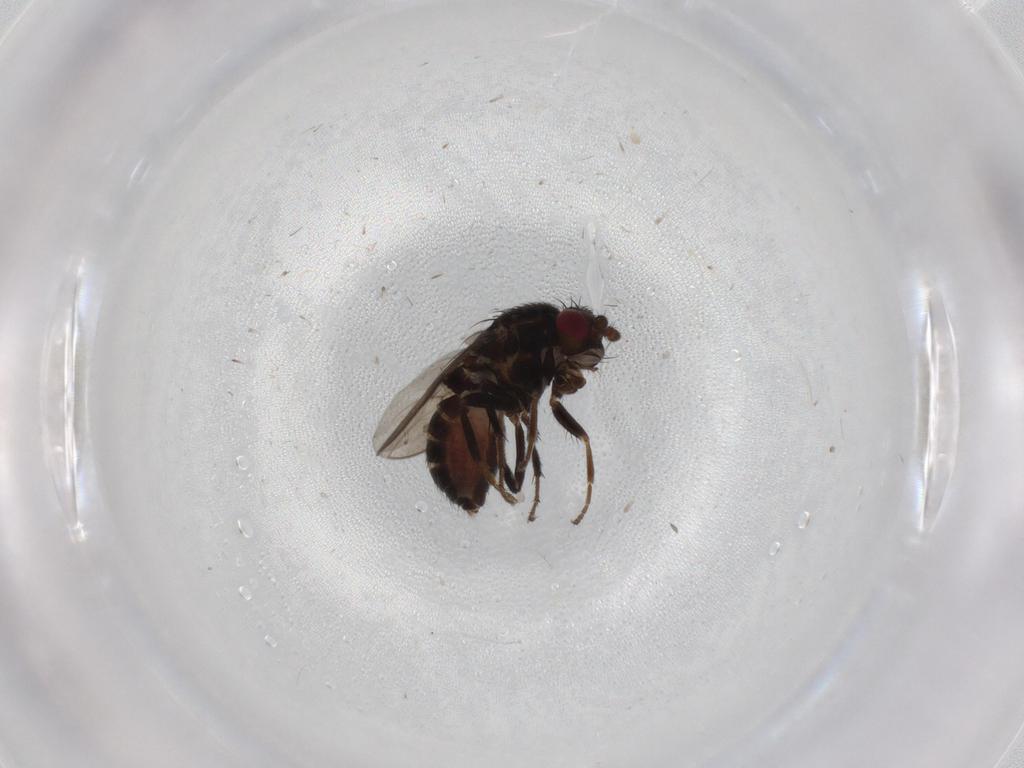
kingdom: Animalia
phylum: Arthropoda
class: Insecta
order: Diptera
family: Sphaeroceridae
